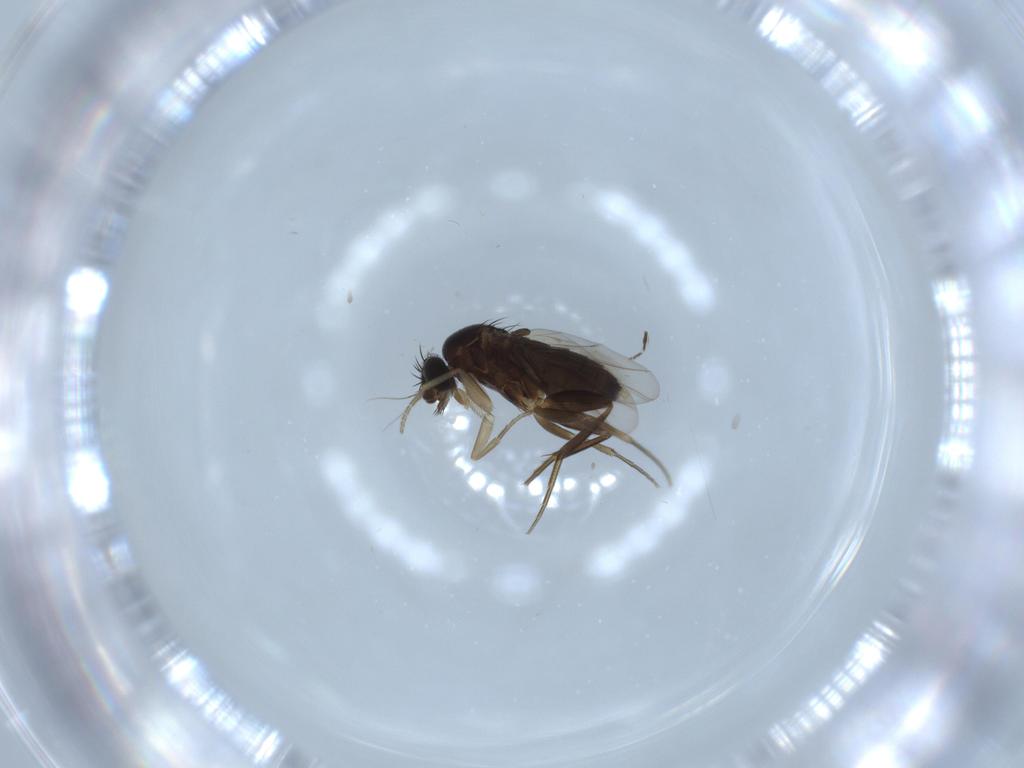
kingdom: Animalia
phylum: Arthropoda
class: Insecta
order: Diptera
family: Phoridae
